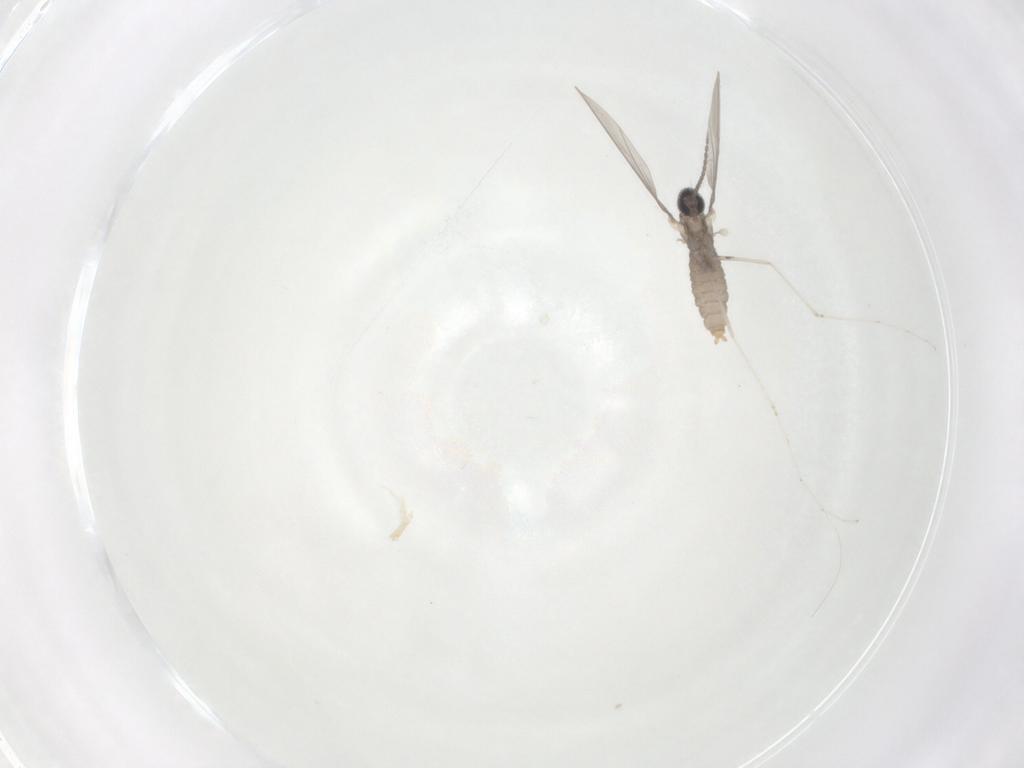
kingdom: Animalia
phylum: Arthropoda
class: Insecta
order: Diptera
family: Cecidomyiidae
